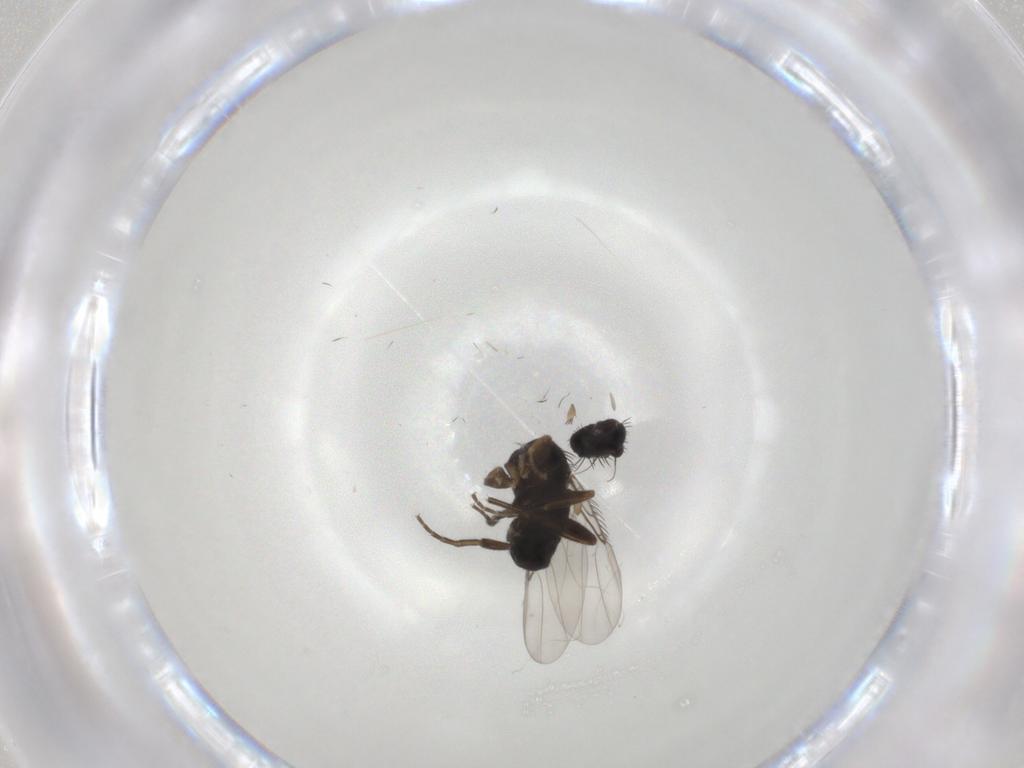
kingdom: Animalia
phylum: Arthropoda
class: Insecta
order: Diptera
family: Phoridae
